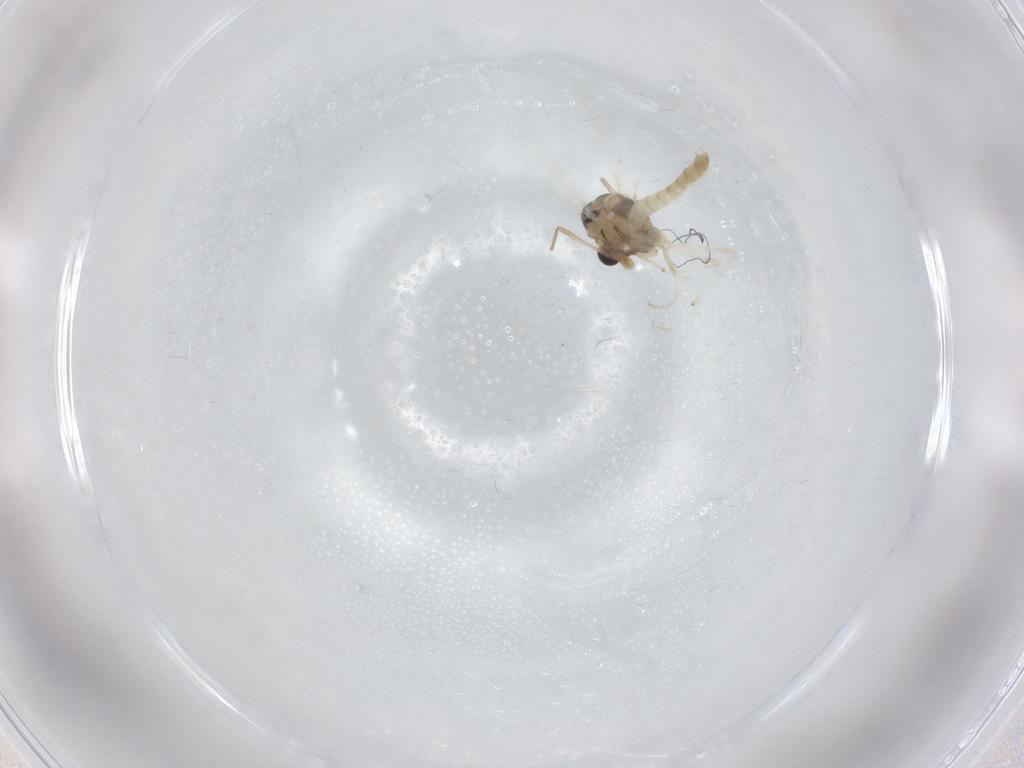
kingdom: Animalia
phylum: Arthropoda
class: Insecta
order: Diptera
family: Chironomidae
